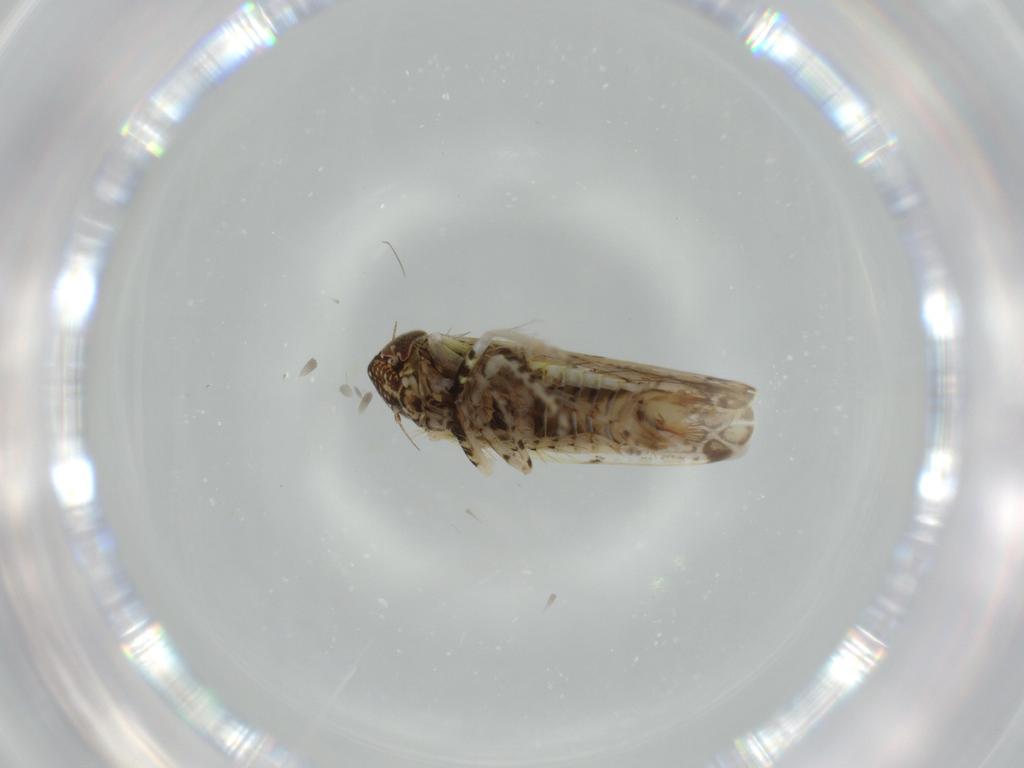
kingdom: Animalia
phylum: Arthropoda
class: Insecta
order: Hemiptera
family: Cicadellidae
